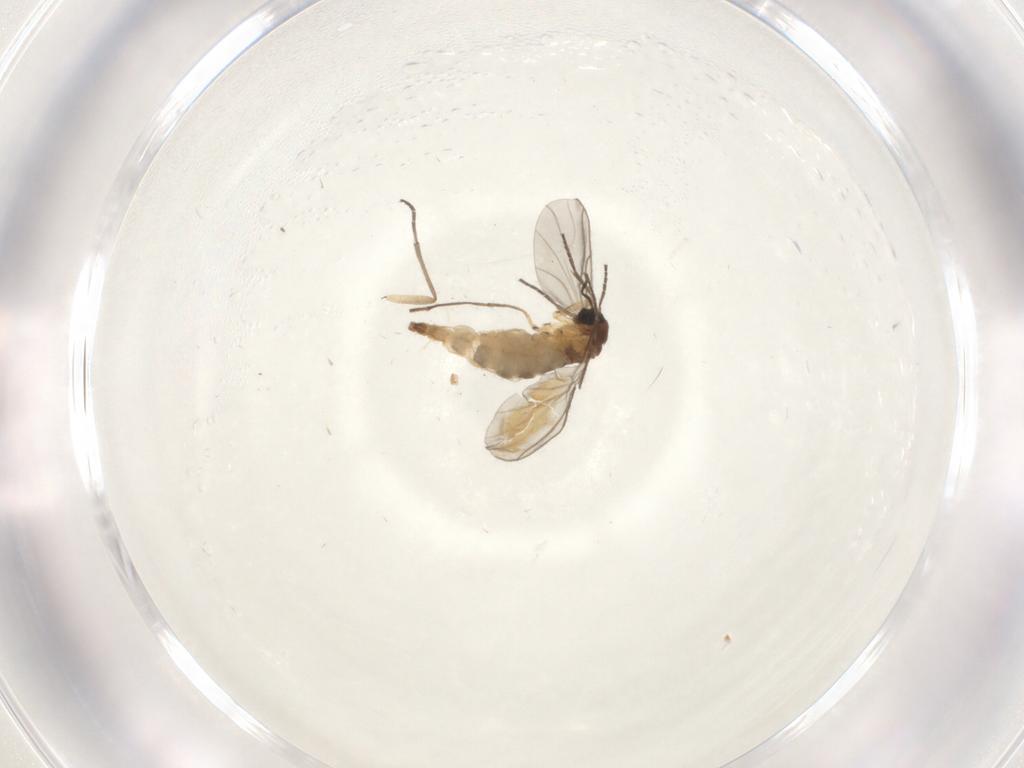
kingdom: Animalia
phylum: Arthropoda
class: Insecta
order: Diptera
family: Sciaridae
